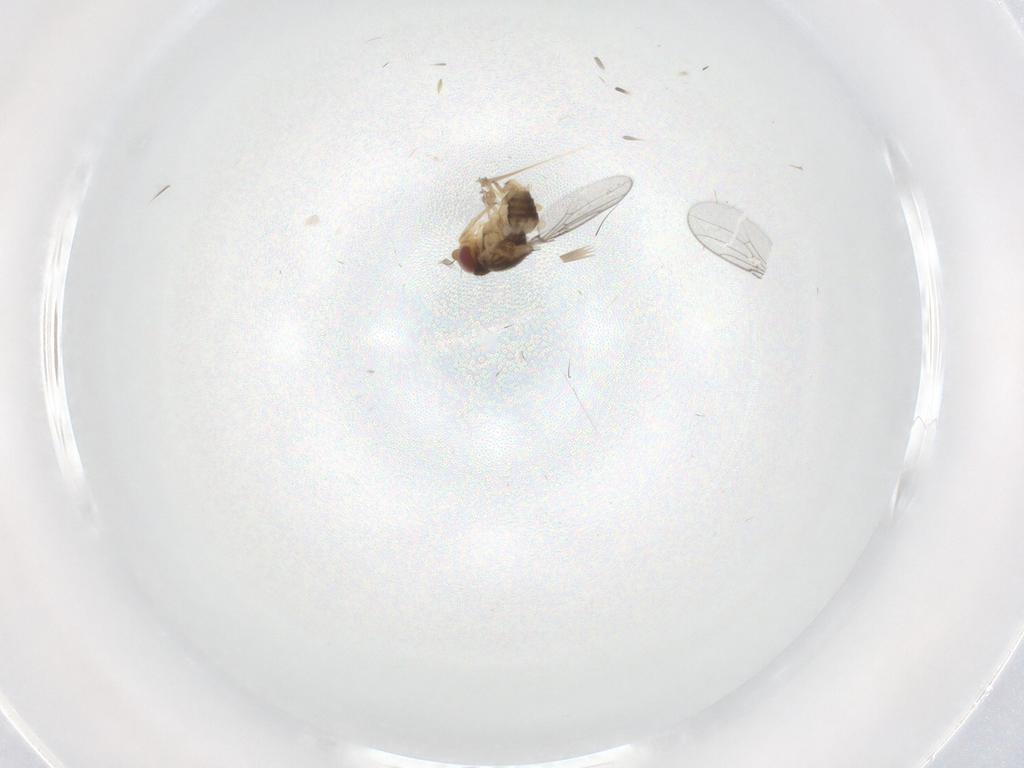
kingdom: Animalia
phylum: Arthropoda
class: Insecta
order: Diptera
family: Chloropidae
